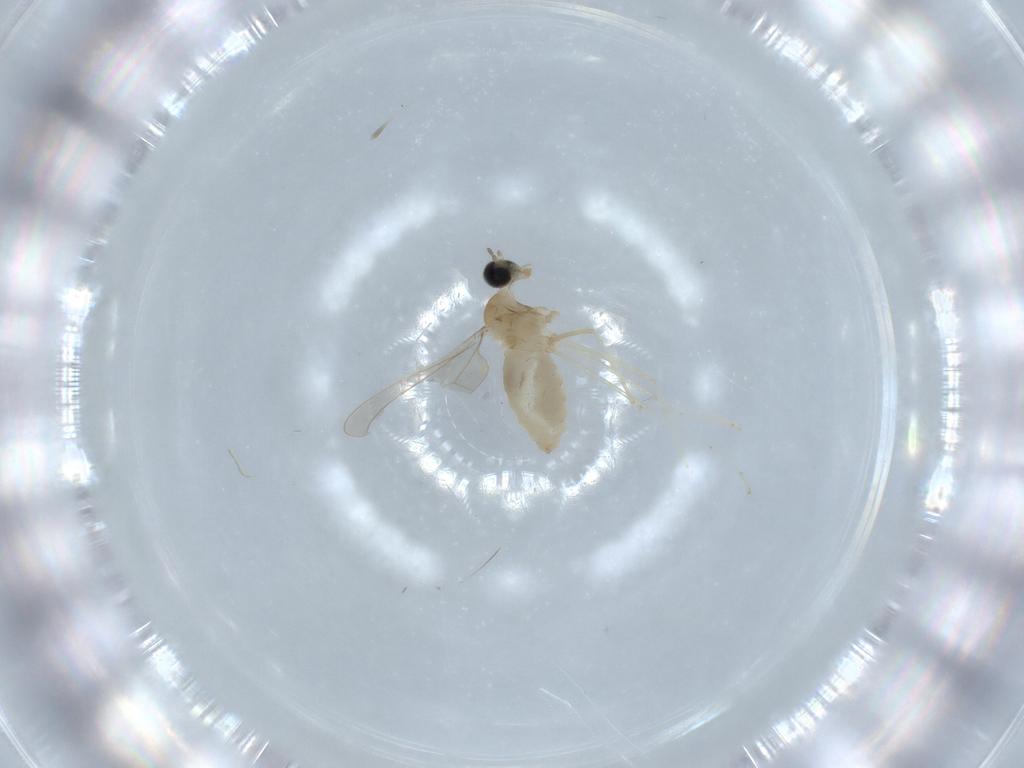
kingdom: Animalia
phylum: Arthropoda
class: Insecta
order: Diptera
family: Cecidomyiidae
